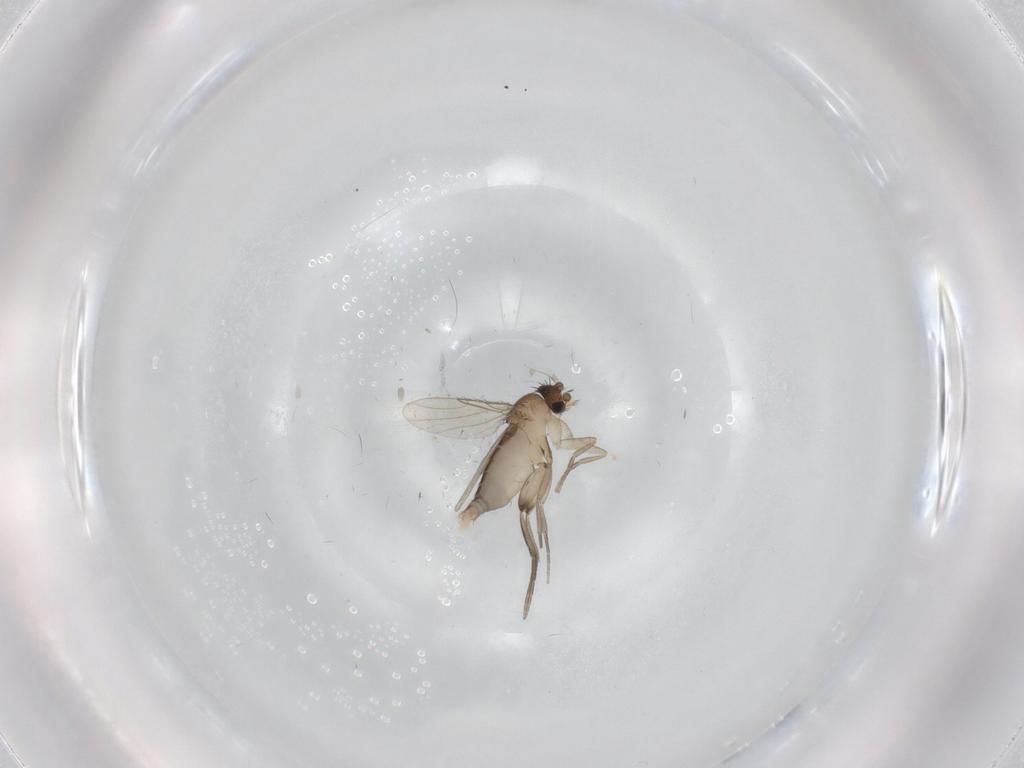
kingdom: Animalia
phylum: Arthropoda
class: Insecta
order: Diptera
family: Phoridae
